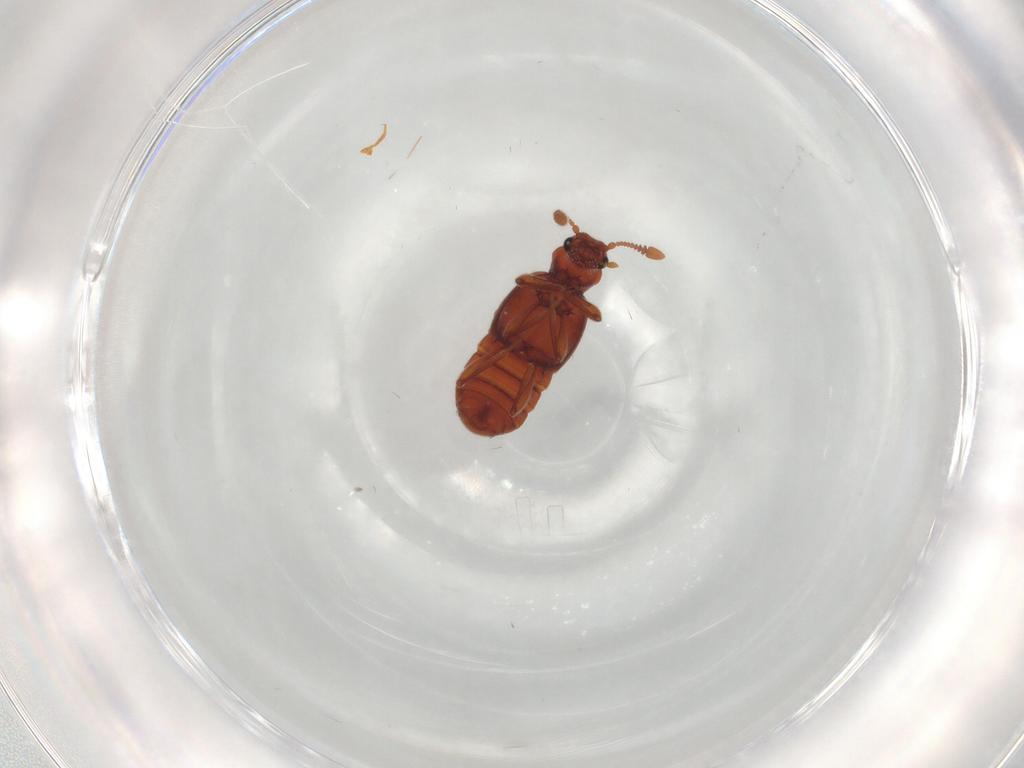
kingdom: Animalia
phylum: Arthropoda
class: Insecta
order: Coleoptera
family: Staphylinidae
